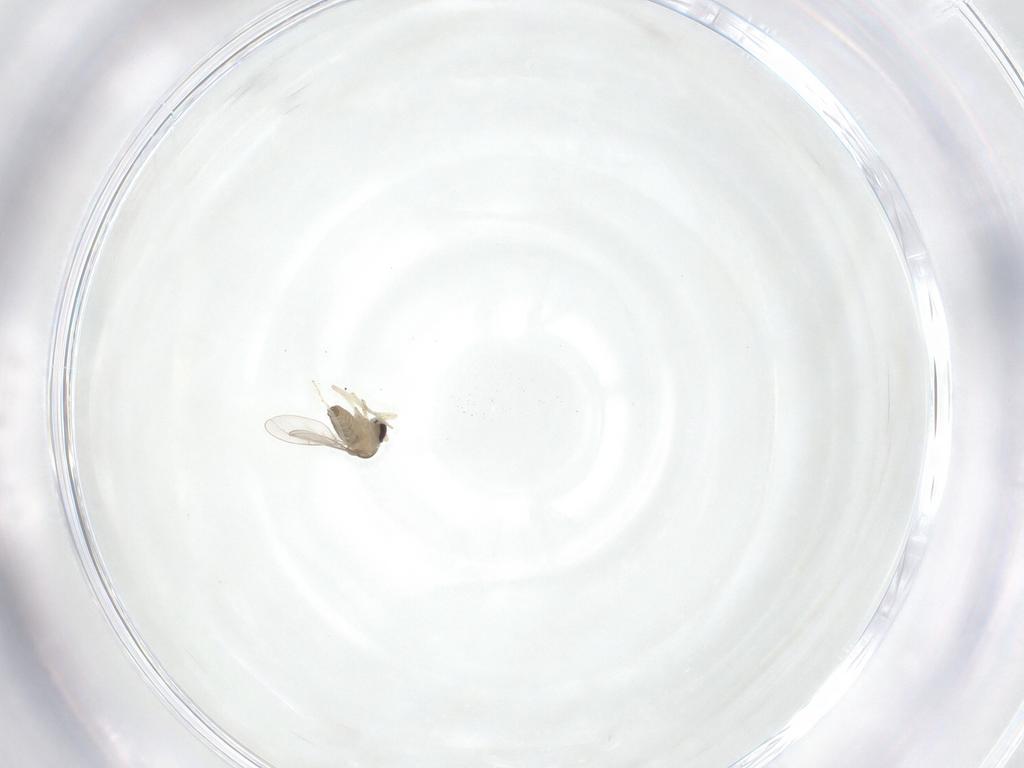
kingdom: Animalia
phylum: Arthropoda
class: Insecta
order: Diptera
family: Cecidomyiidae
